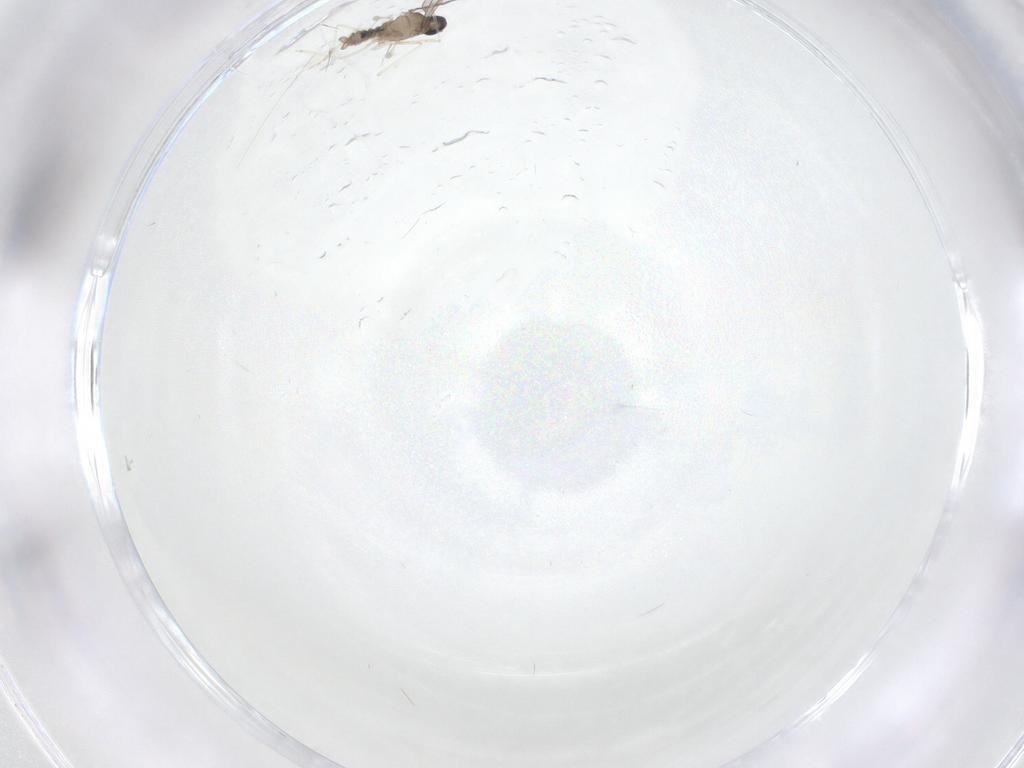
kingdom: Animalia
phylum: Arthropoda
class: Insecta
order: Diptera
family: Cecidomyiidae
